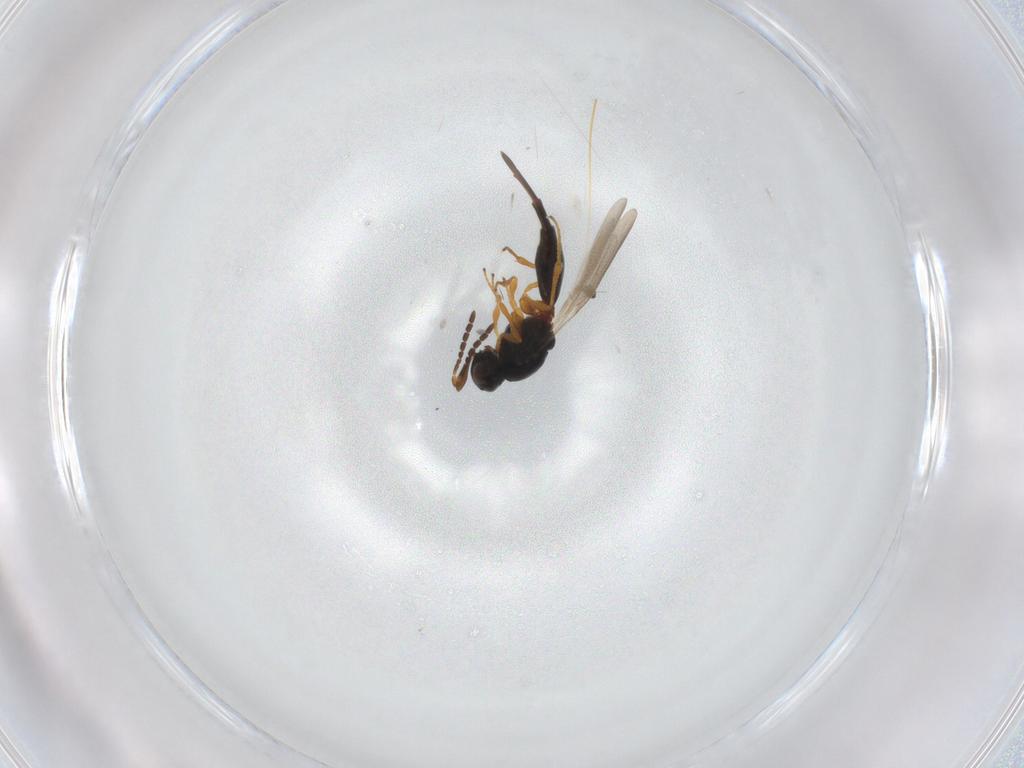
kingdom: Animalia
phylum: Arthropoda
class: Insecta
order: Hymenoptera
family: Platygastridae
